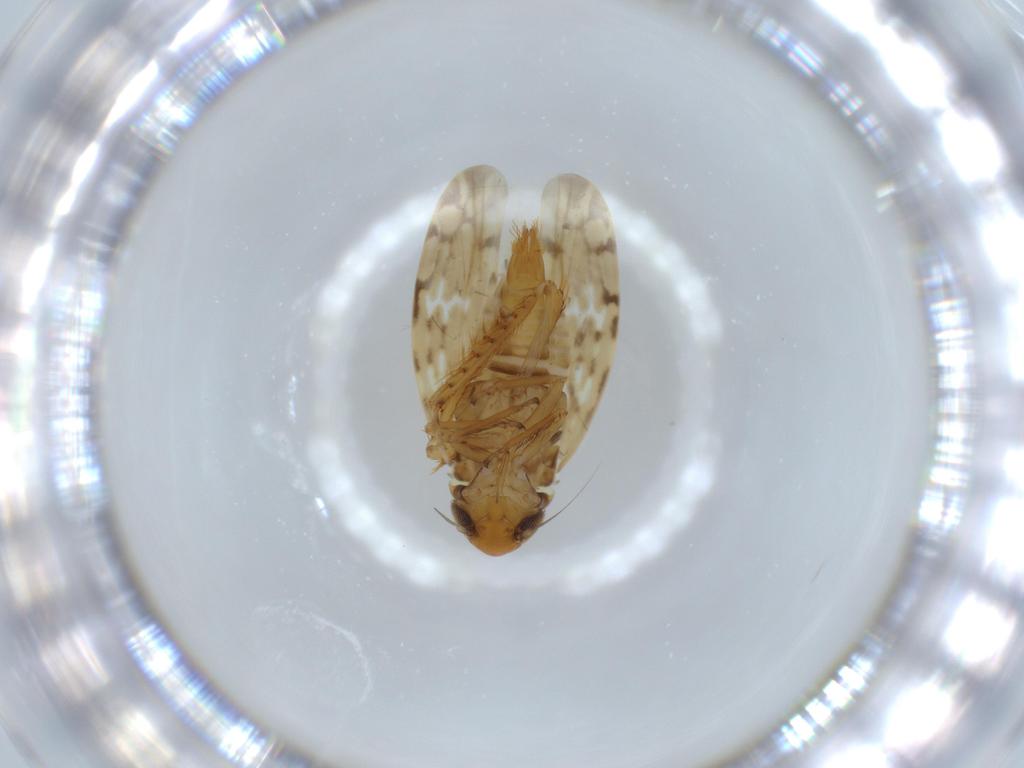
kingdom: Animalia
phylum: Arthropoda
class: Insecta
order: Hemiptera
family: Cicadellidae
